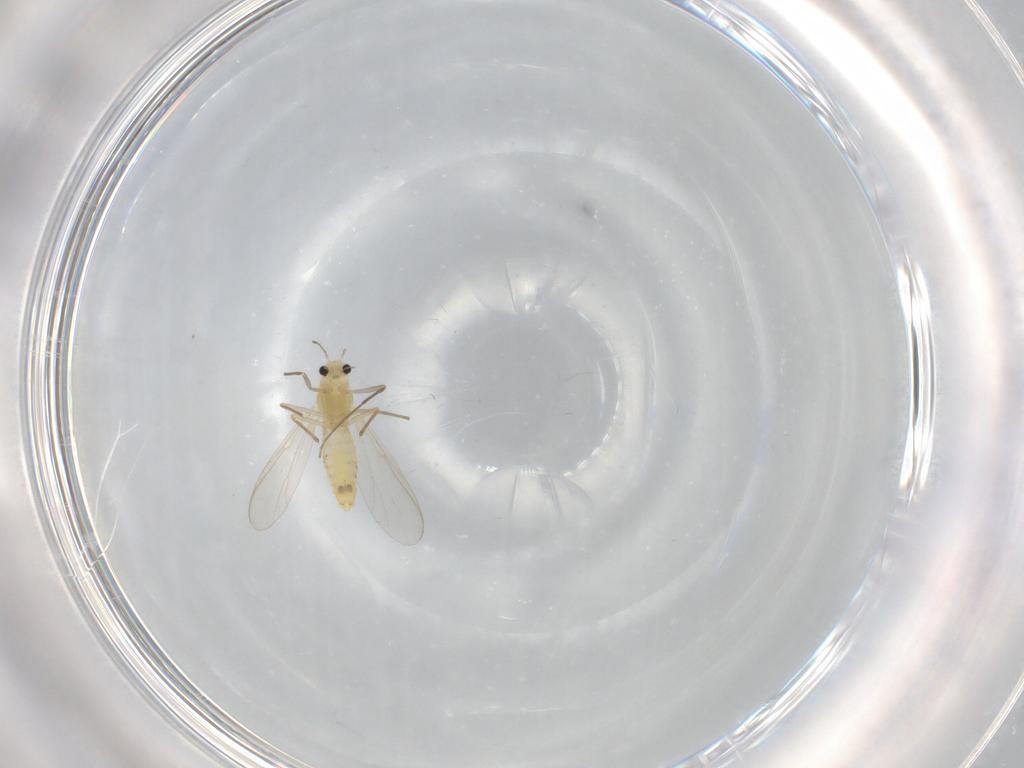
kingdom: Animalia
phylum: Arthropoda
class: Insecta
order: Diptera
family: Chironomidae
